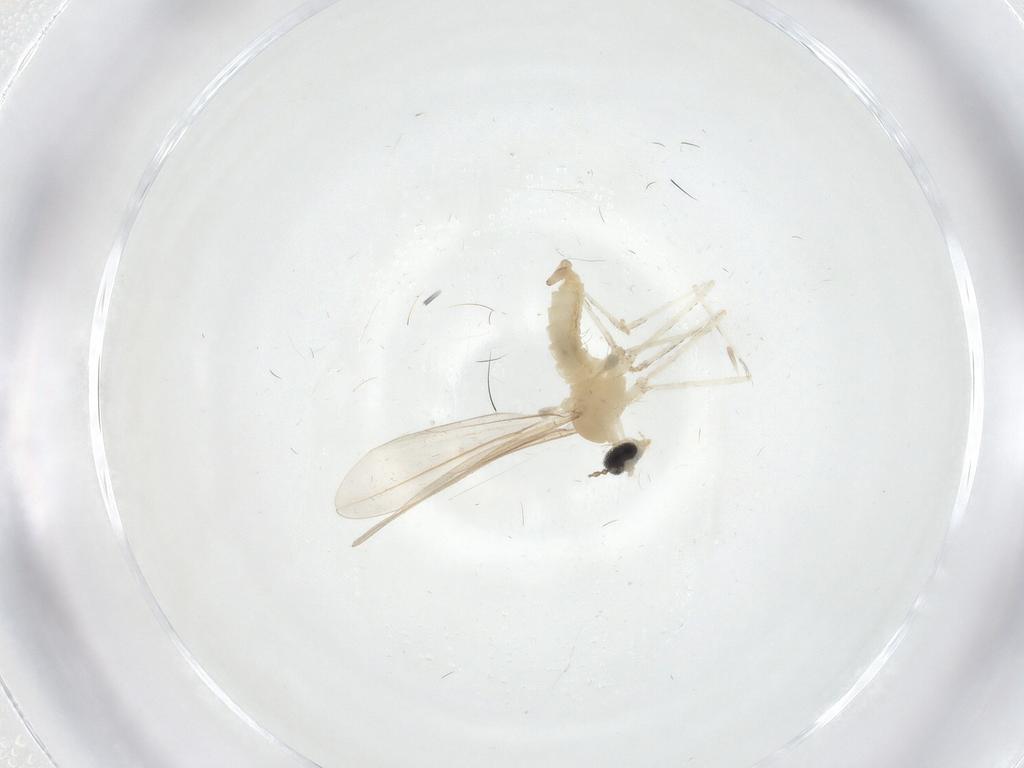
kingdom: Animalia
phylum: Arthropoda
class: Insecta
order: Diptera
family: Cecidomyiidae
